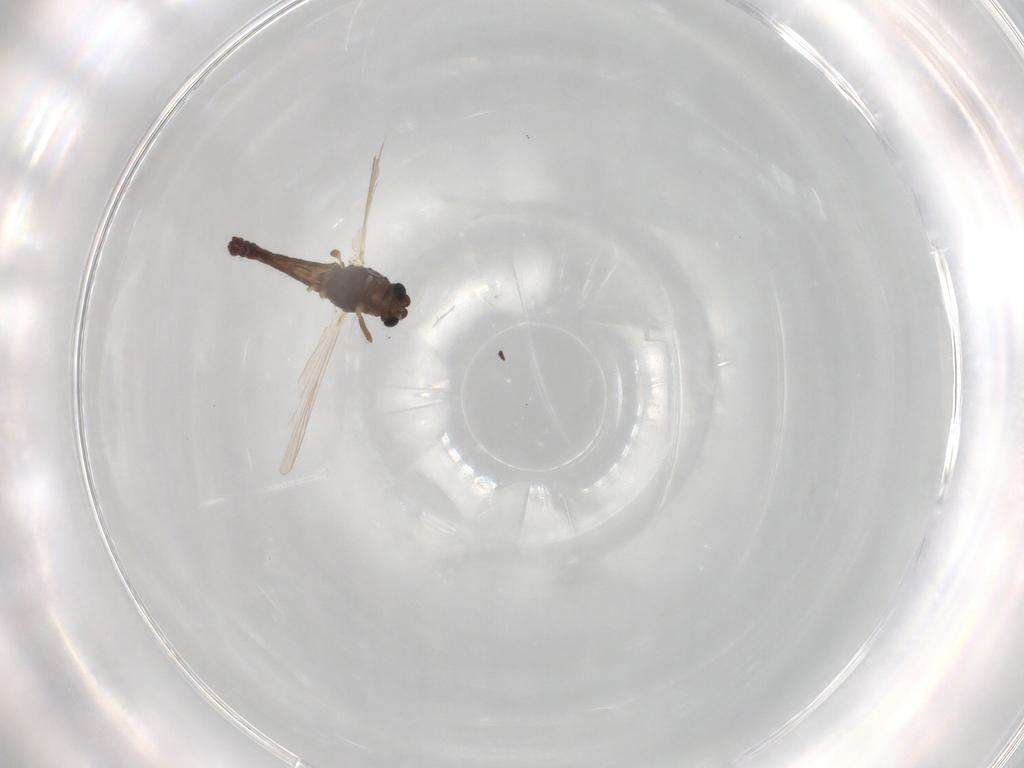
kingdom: Animalia
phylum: Arthropoda
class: Insecta
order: Diptera
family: Chironomidae
